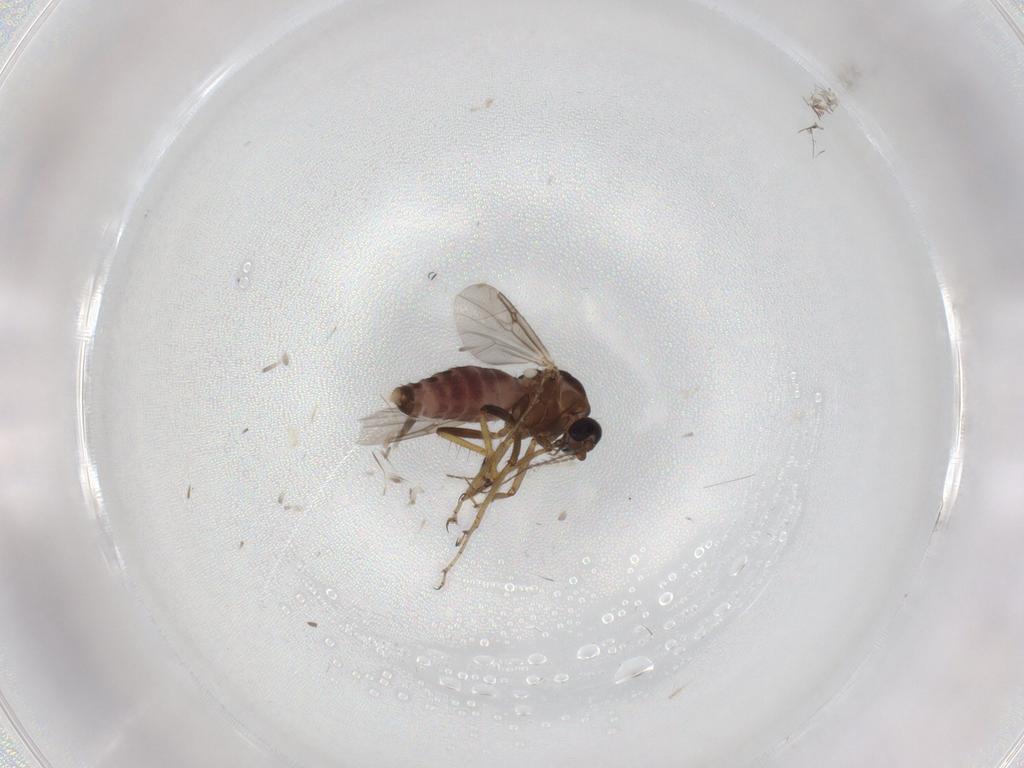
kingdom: Animalia
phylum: Arthropoda
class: Insecta
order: Diptera
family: Ceratopogonidae
